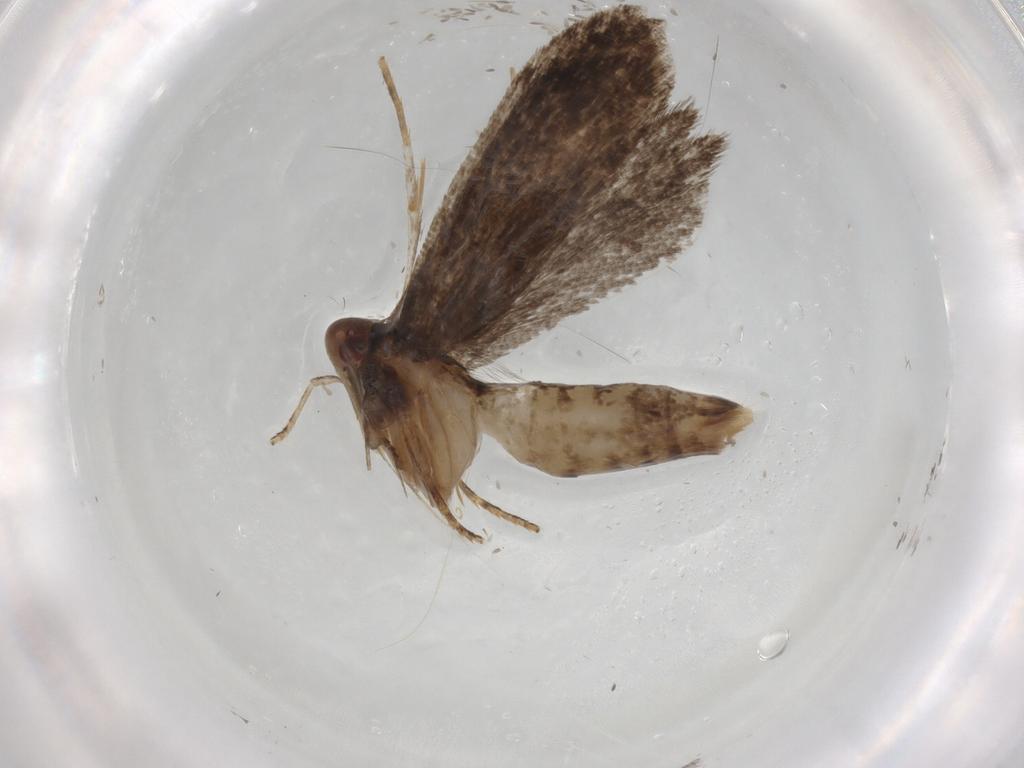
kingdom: Animalia
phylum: Arthropoda
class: Insecta
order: Lepidoptera
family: Gelechiidae
